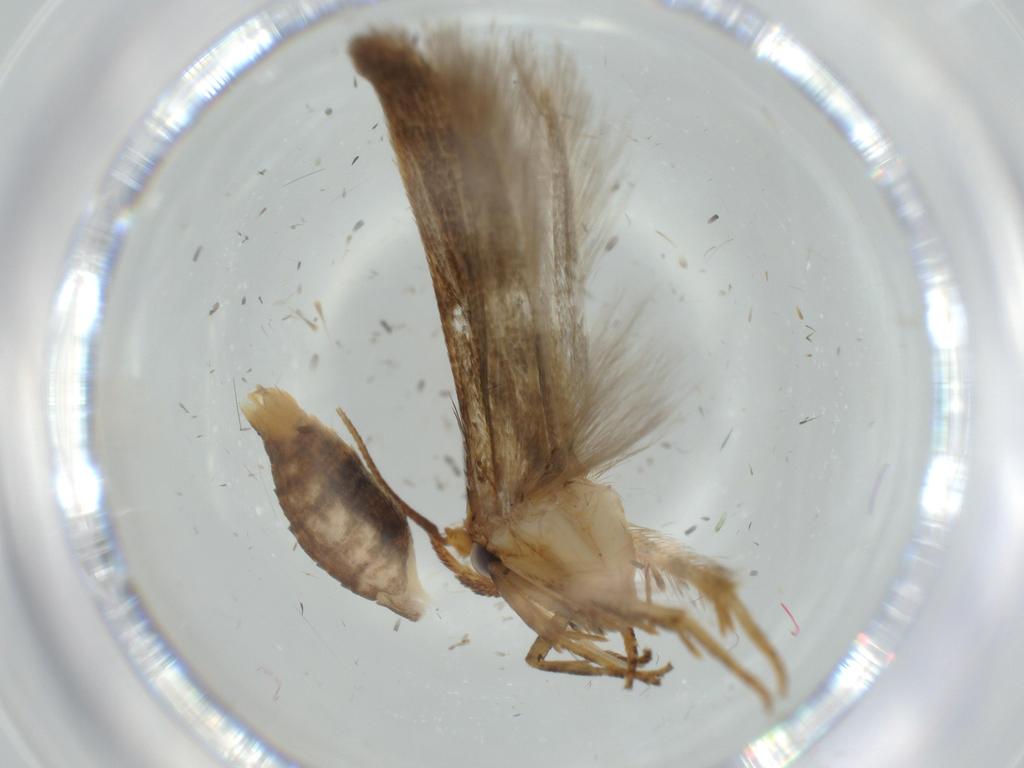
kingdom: Animalia
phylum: Arthropoda
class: Insecta
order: Lepidoptera
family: Blastobasidae
